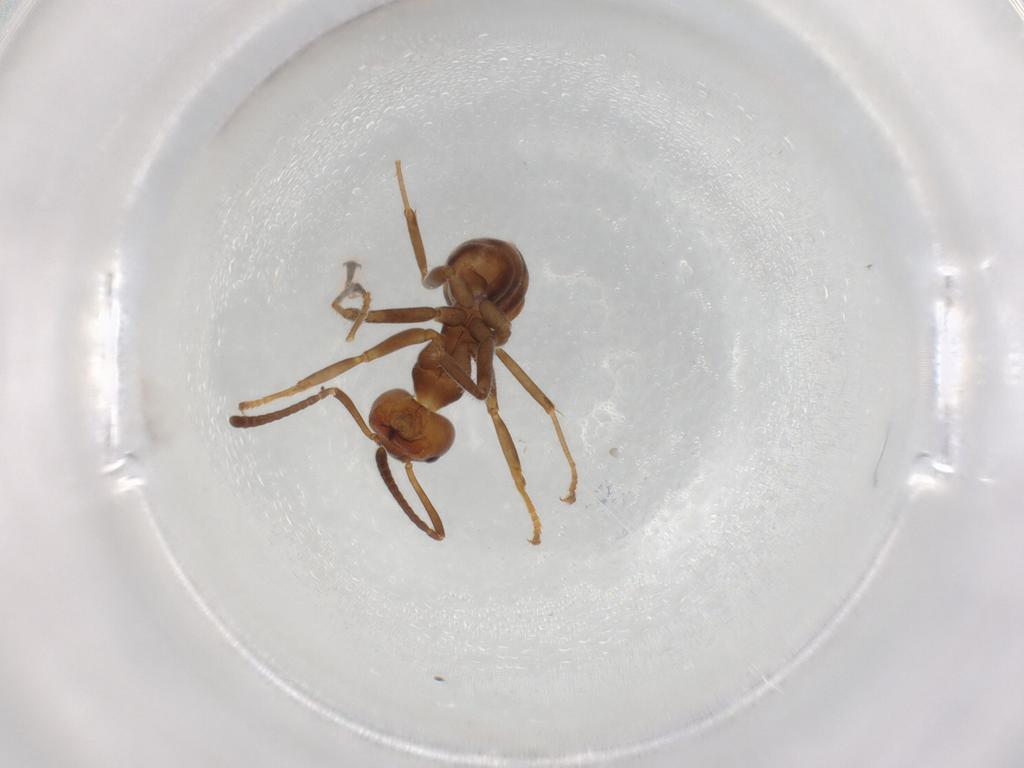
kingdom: Animalia
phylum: Arthropoda
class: Insecta
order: Hymenoptera
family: Formicidae
